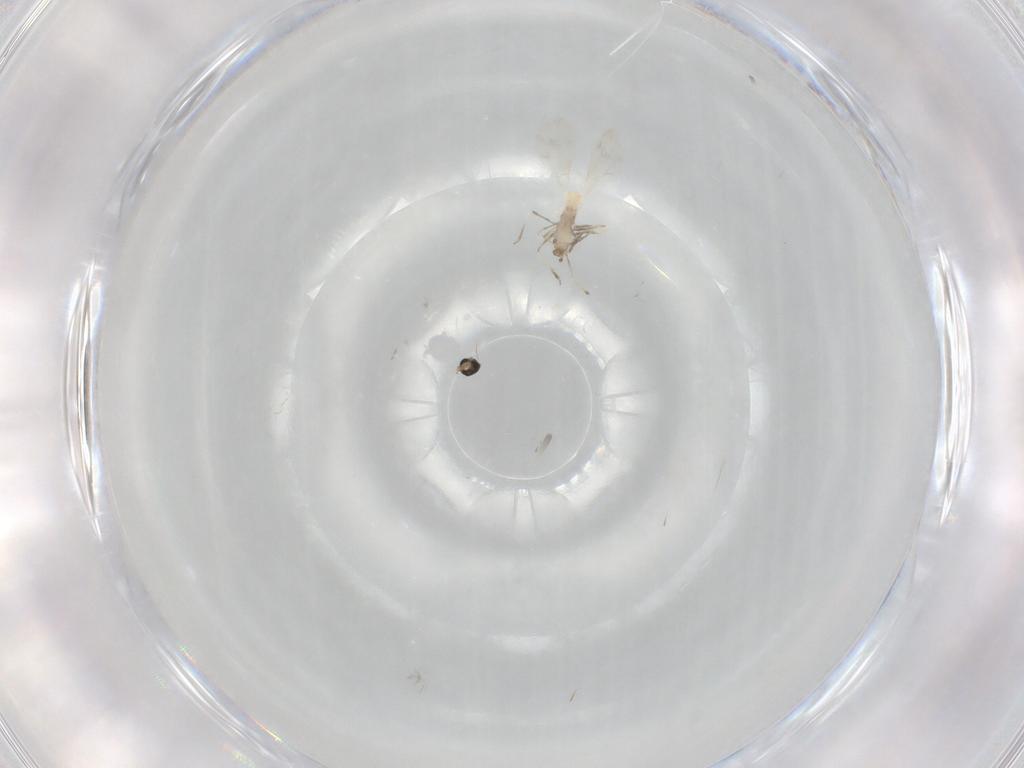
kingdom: Animalia
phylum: Arthropoda
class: Insecta
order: Diptera
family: Cecidomyiidae
